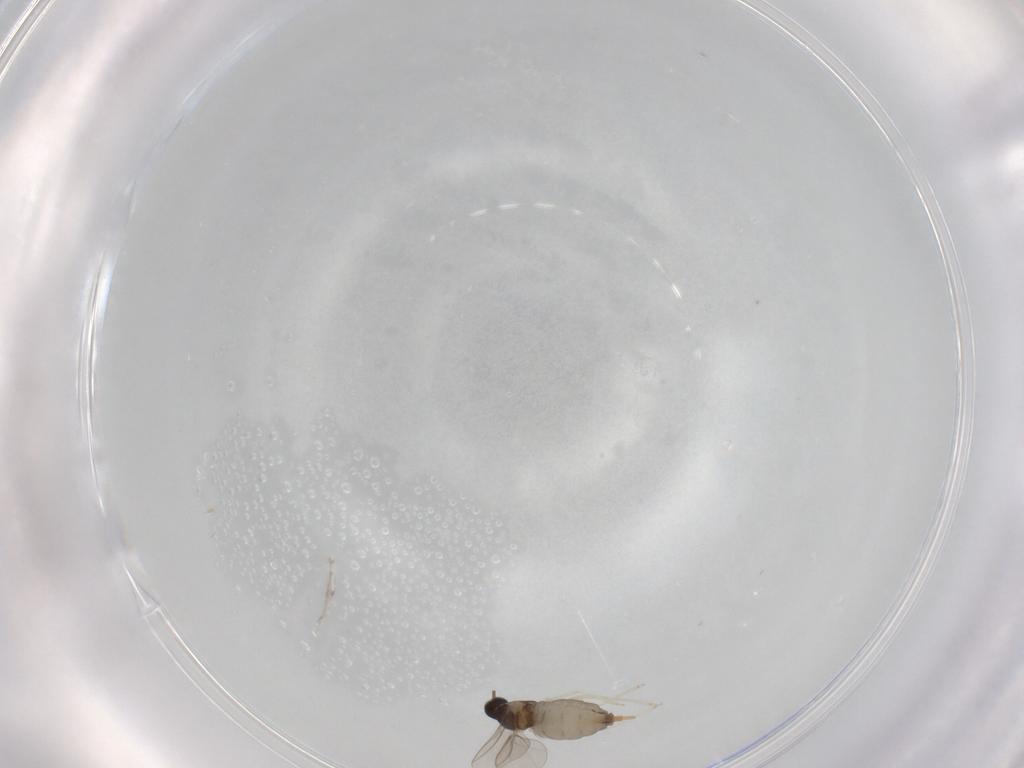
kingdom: Animalia
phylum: Arthropoda
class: Insecta
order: Diptera
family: Cecidomyiidae
